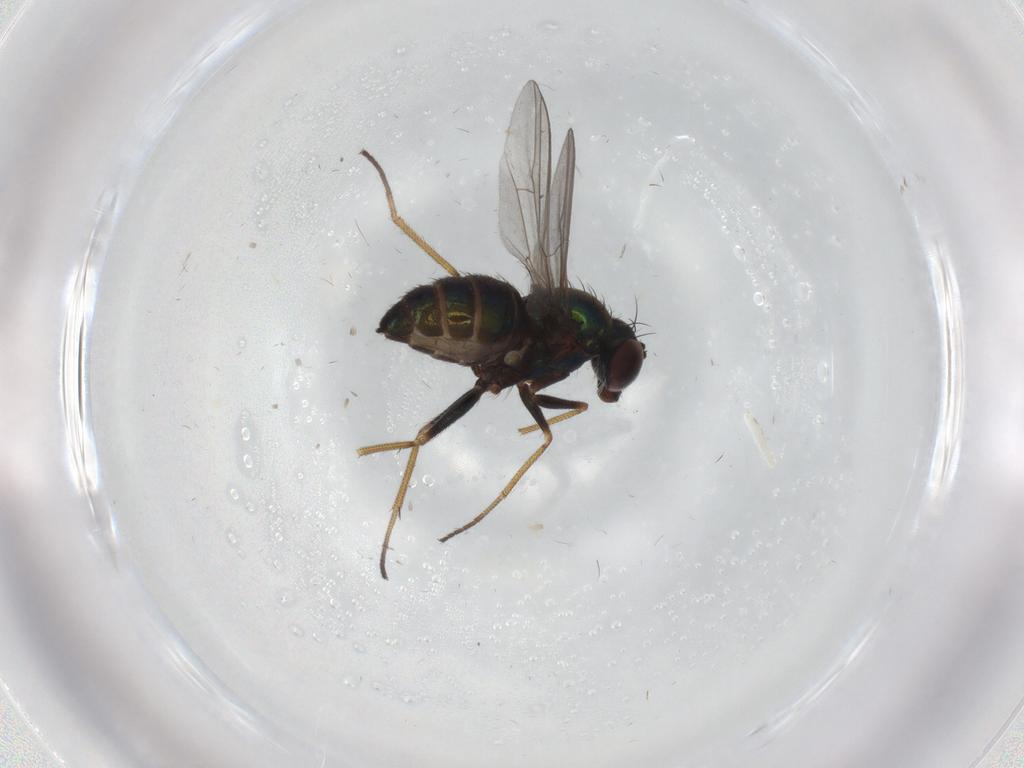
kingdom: Animalia
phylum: Arthropoda
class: Insecta
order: Diptera
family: Dolichopodidae
